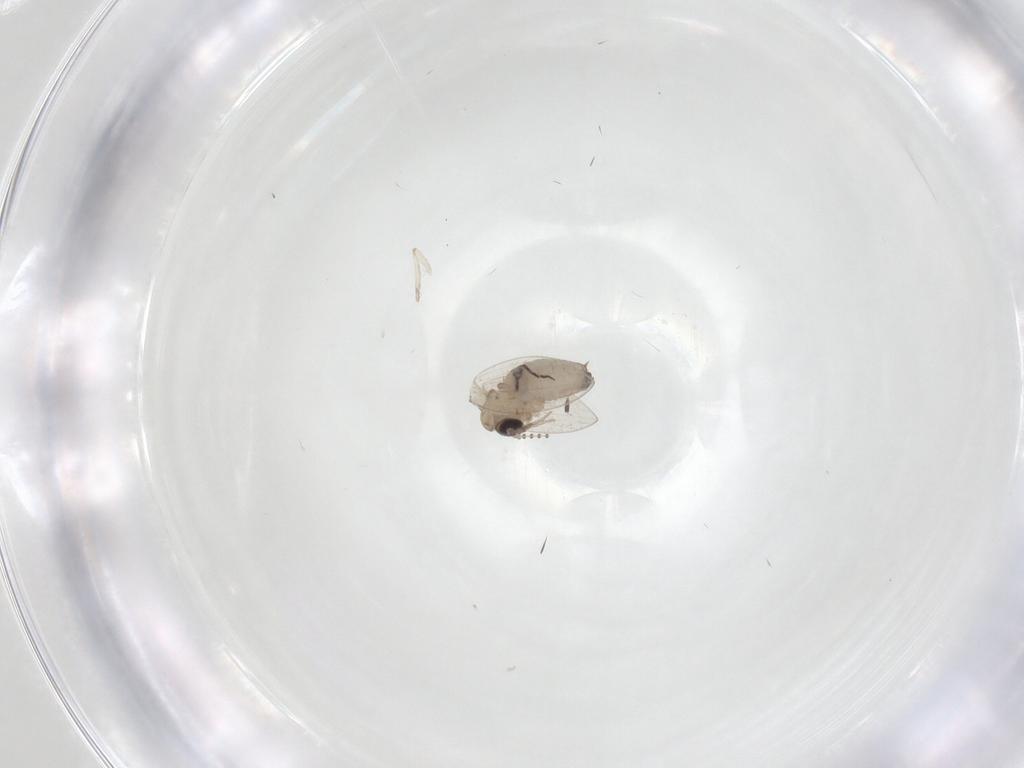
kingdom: Animalia
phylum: Arthropoda
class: Insecta
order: Diptera
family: Psychodidae
